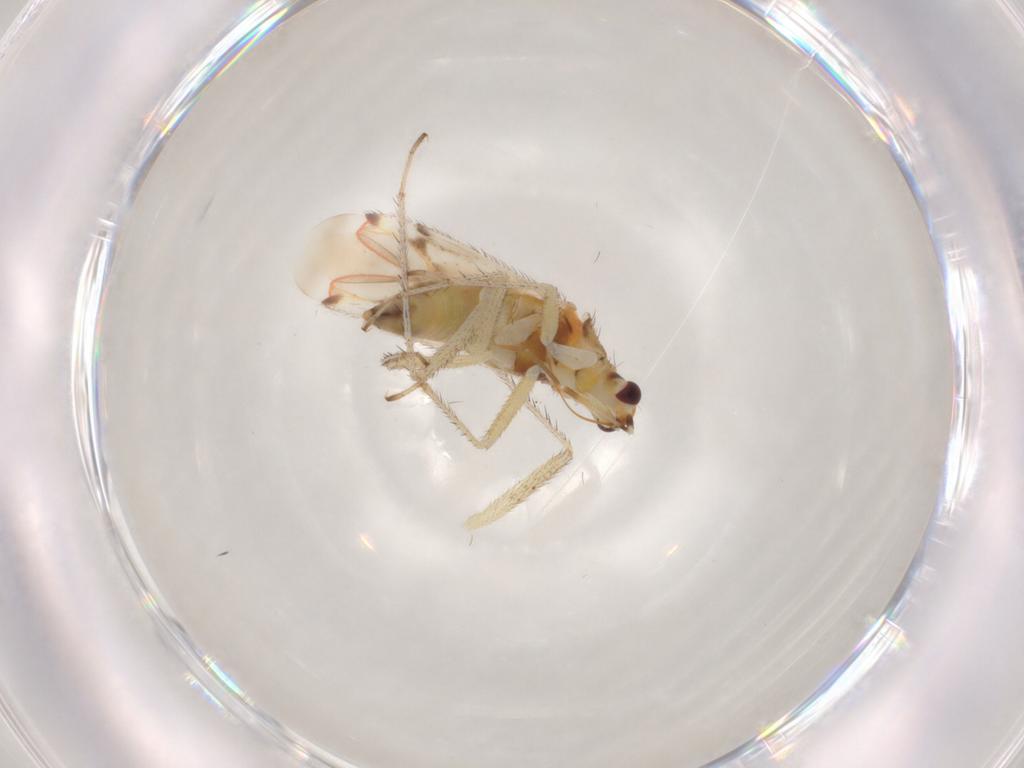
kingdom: Animalia
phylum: Arthropoda
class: Insecta
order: Hemiptera
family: Miridae
